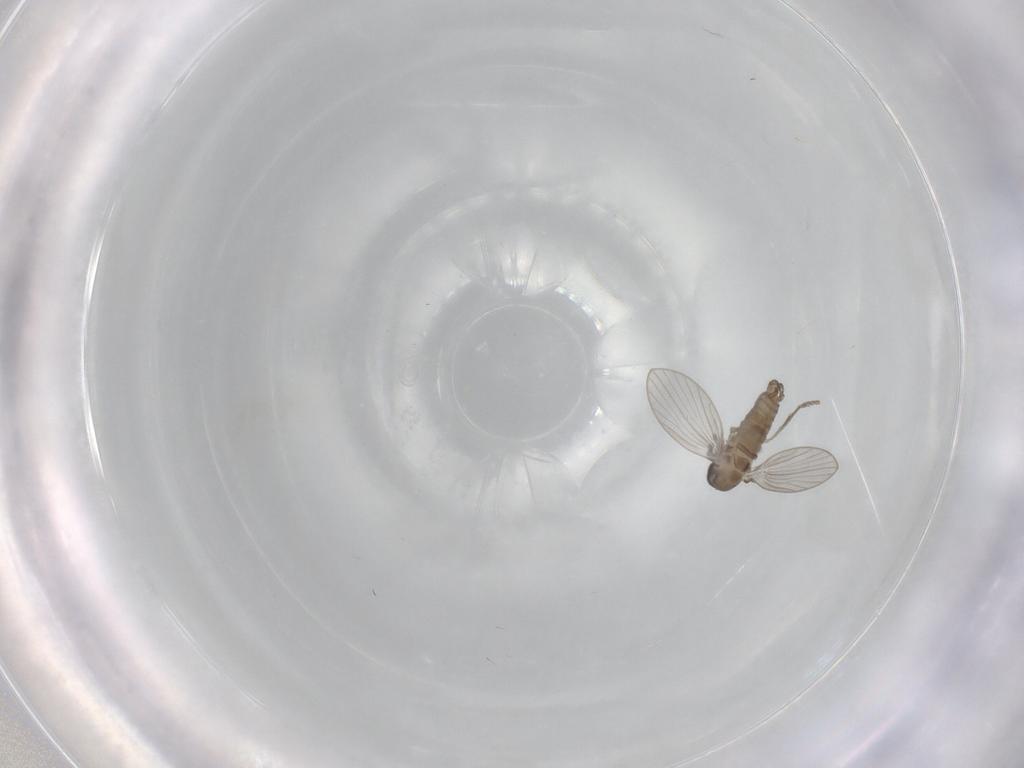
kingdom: Animalia
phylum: Arthropoda
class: Insecta
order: Diptera
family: Psychodidae
